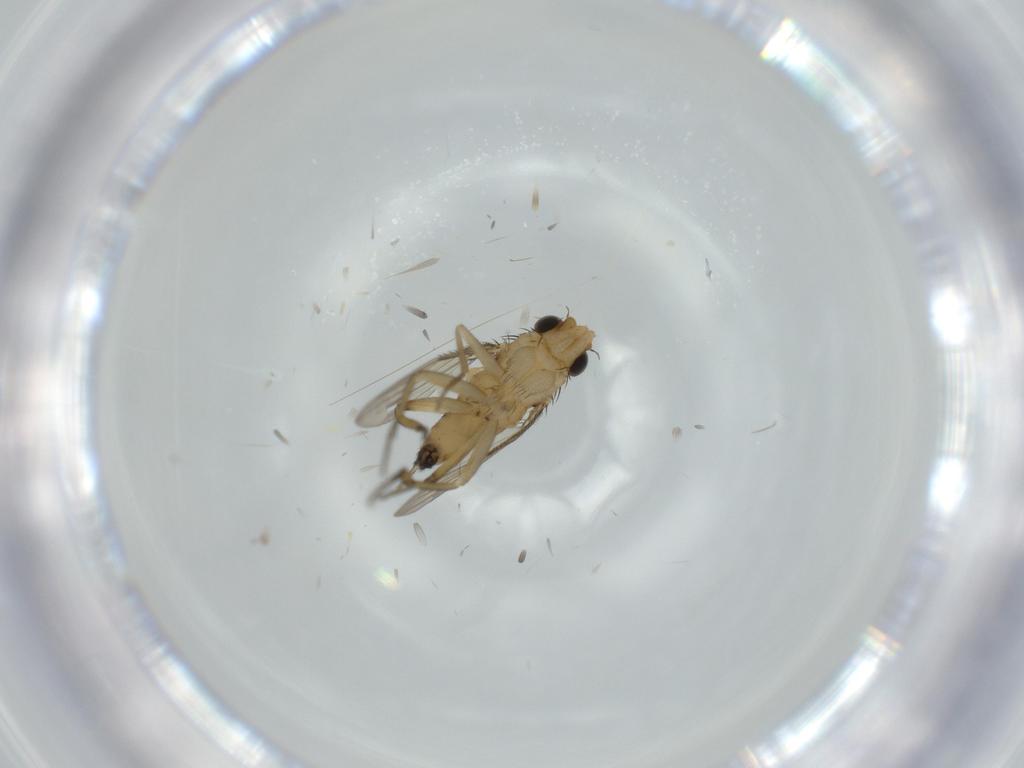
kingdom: Animalia
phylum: Arthropoda
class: Insecta
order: Diptera
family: Phoridae
